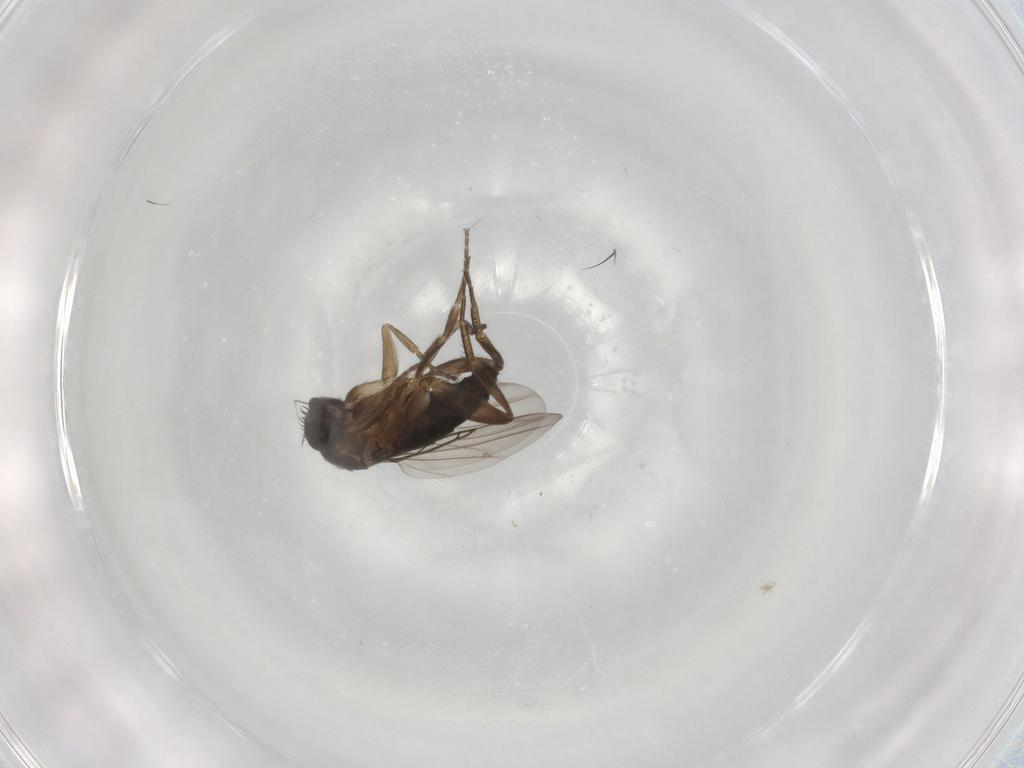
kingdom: Animalia
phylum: Arthropoda
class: Insecta
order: Diptera
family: Phoridae
